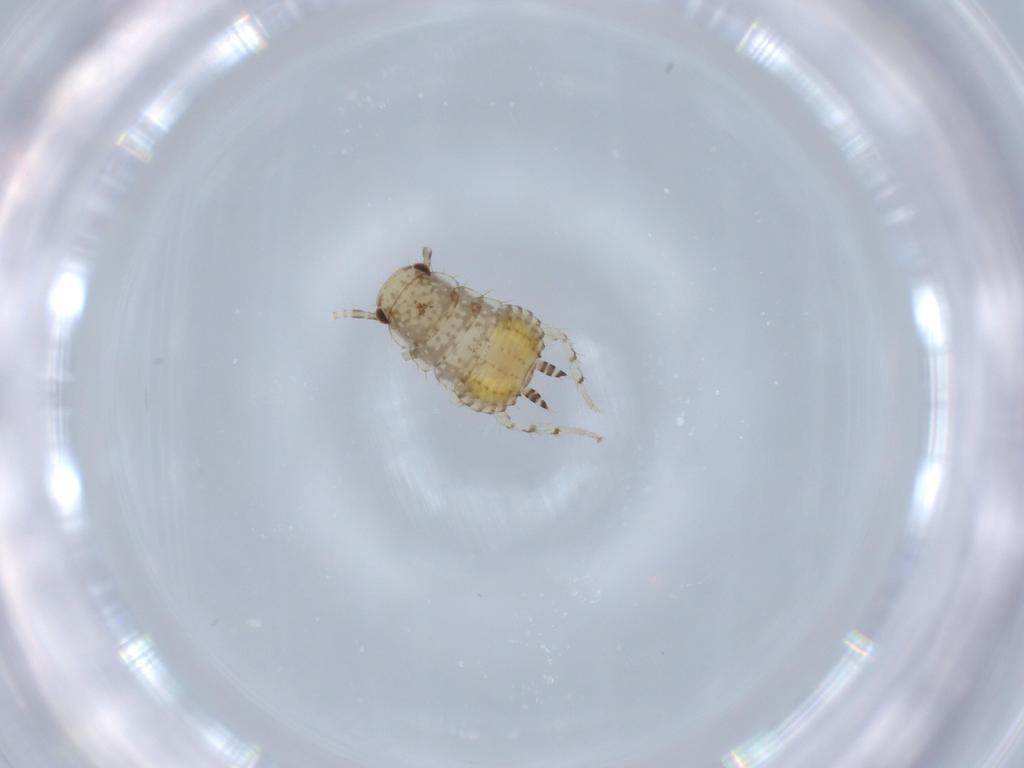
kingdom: Animalia
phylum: Arthropoda
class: Insecta
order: Blattodea
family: Ectobiidae
